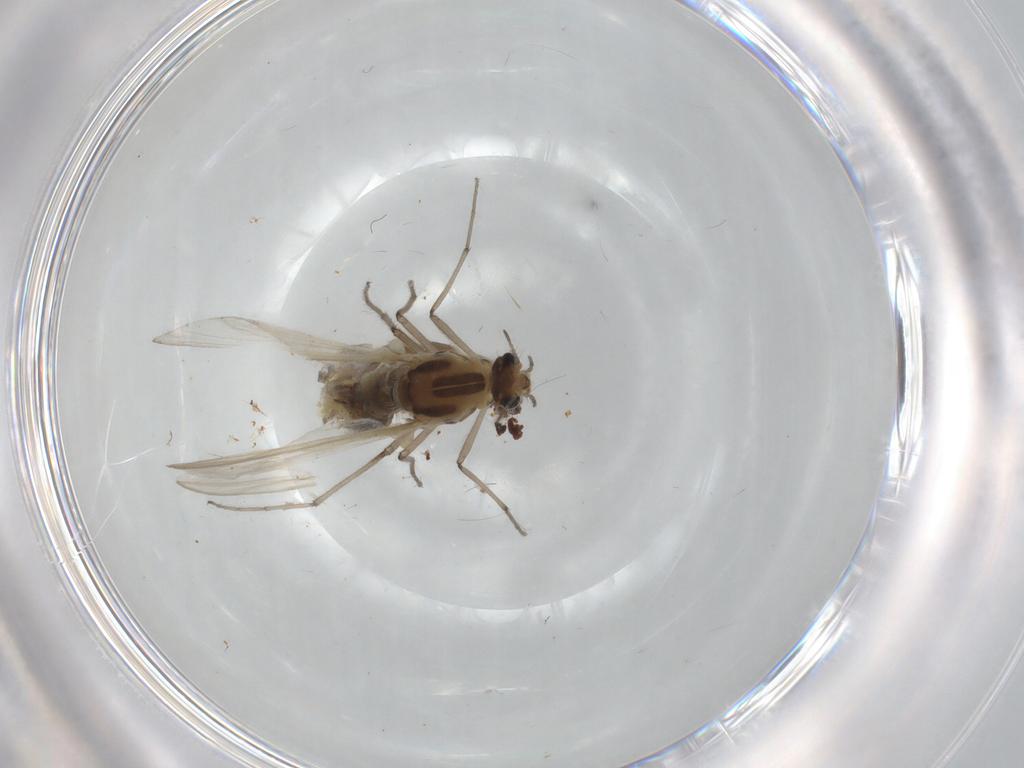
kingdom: Animalia
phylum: Arthropoda
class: Insecta
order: Diptera
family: Chironomidae
